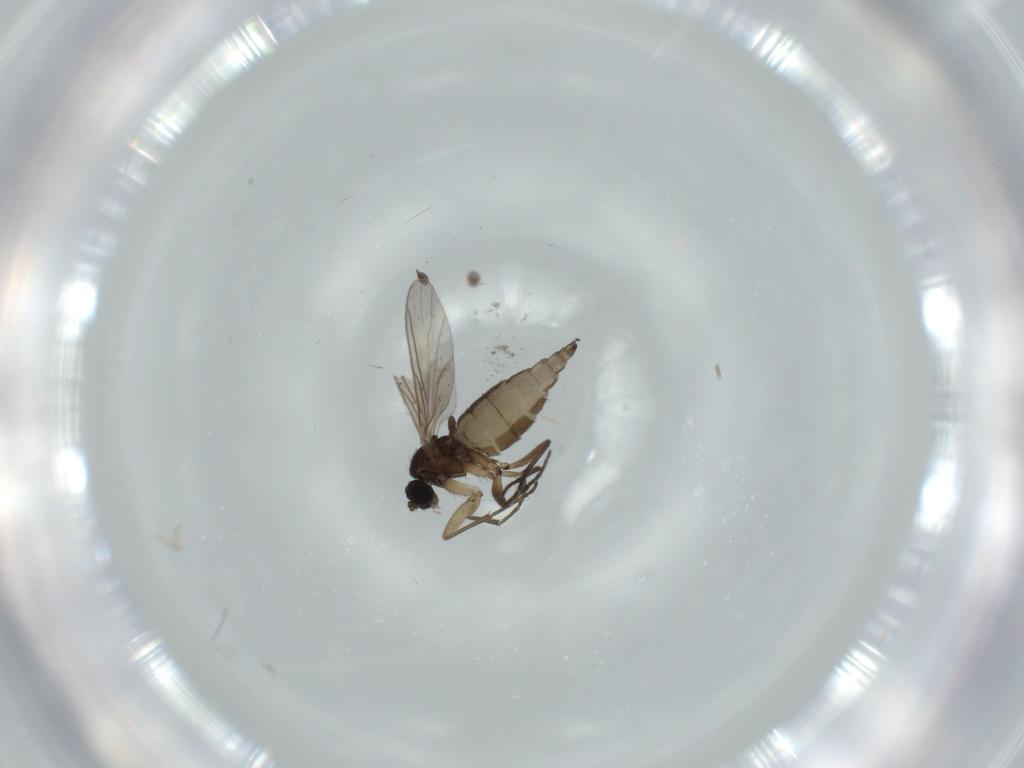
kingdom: Animalia
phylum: Arthropoda
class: Insecta
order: Diptera
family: Sciaridae
